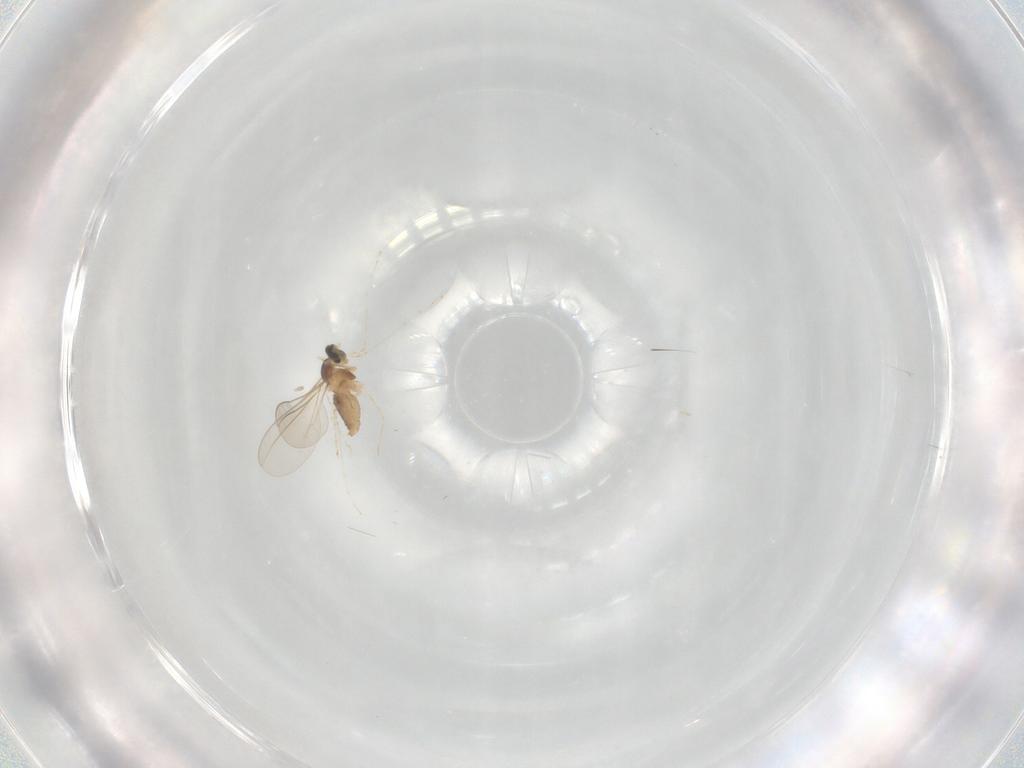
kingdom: Animalia
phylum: Arthropoda
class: Insecta
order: Diptera
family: Cecidomyiidae
